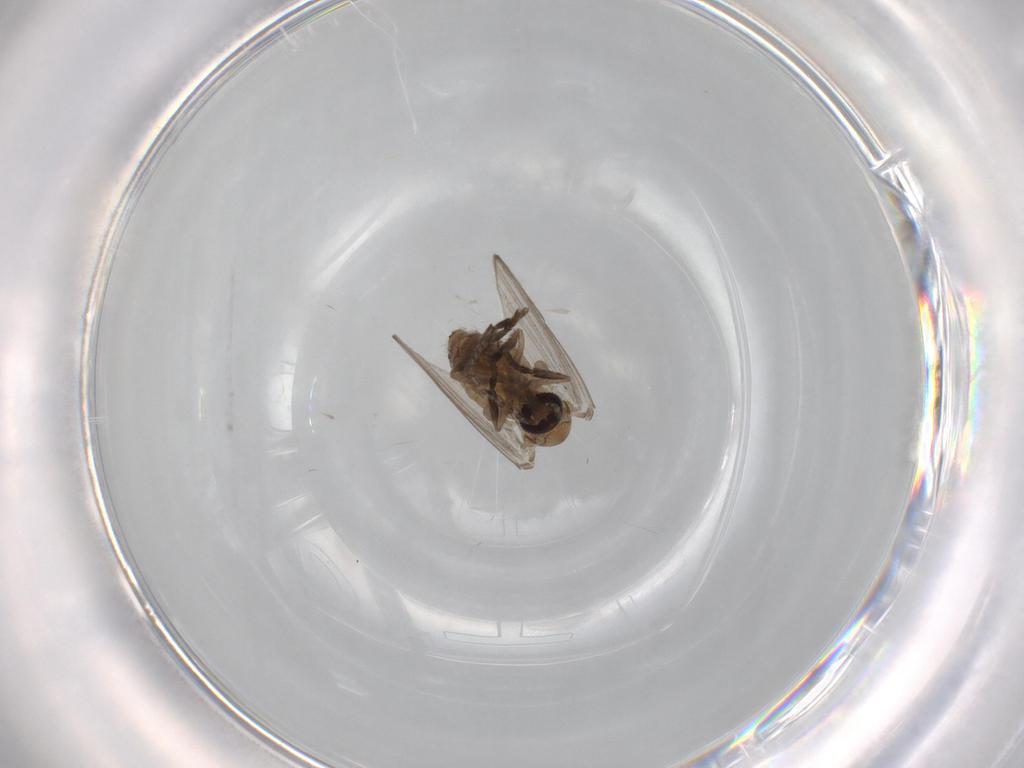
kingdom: Animalia
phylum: Arthropoda
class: Insecta
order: Diptera
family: Psychodidae
